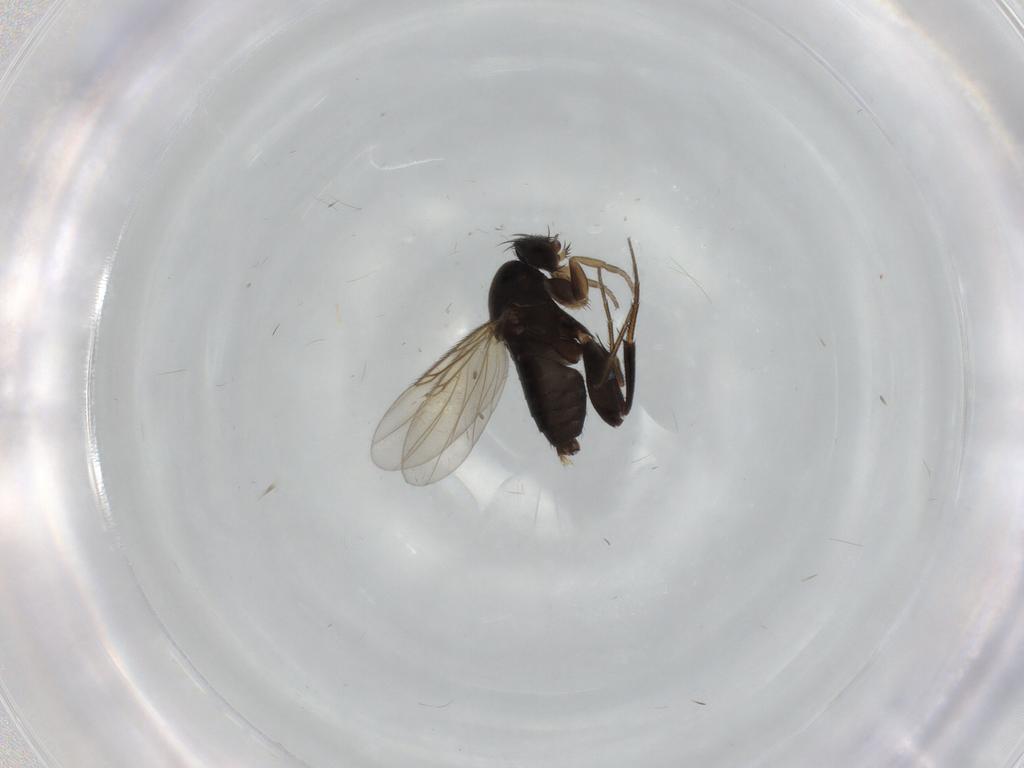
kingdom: Animalia
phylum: Arthropoda
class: Insecta
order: Diptera
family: Phoridae
